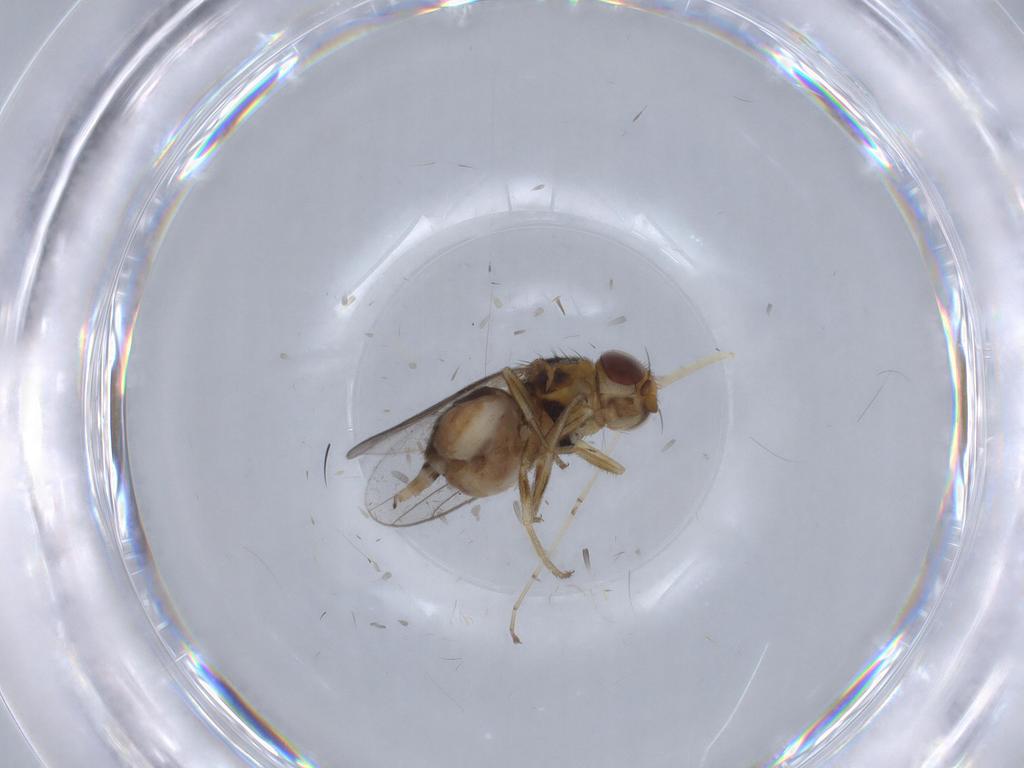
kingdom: Animalia
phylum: Arthropoda
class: Insecta
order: Diptera
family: Chloropidae
